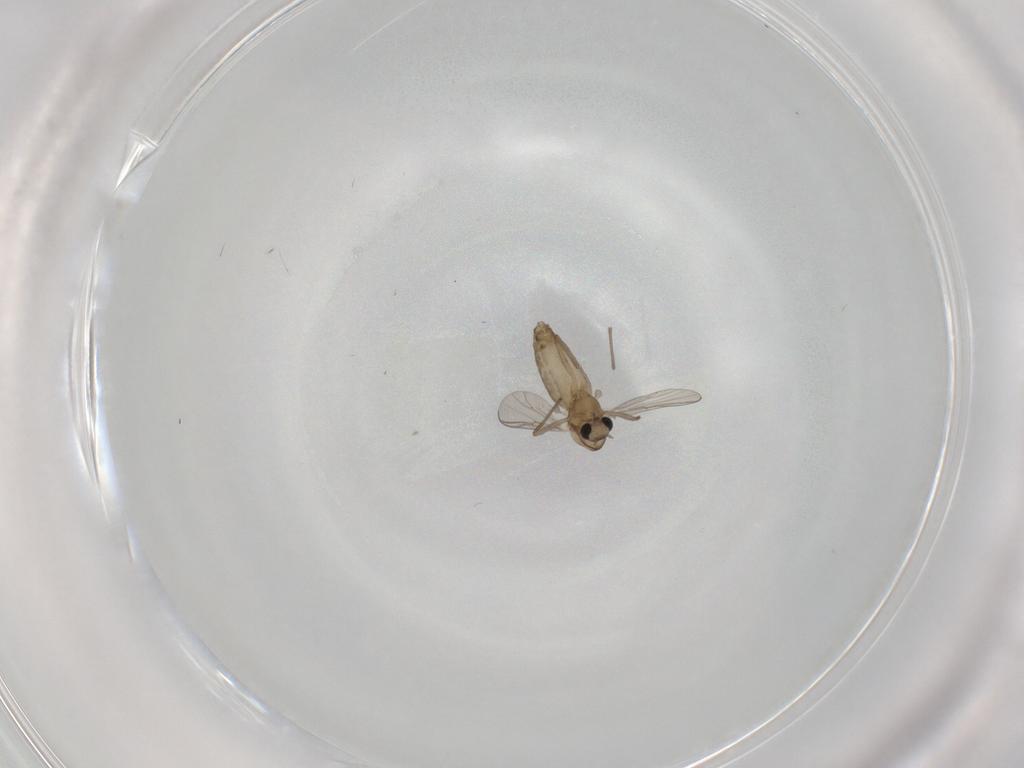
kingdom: Animalia
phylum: Arthropoda
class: Insecta
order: Diptera
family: Chironomidae
